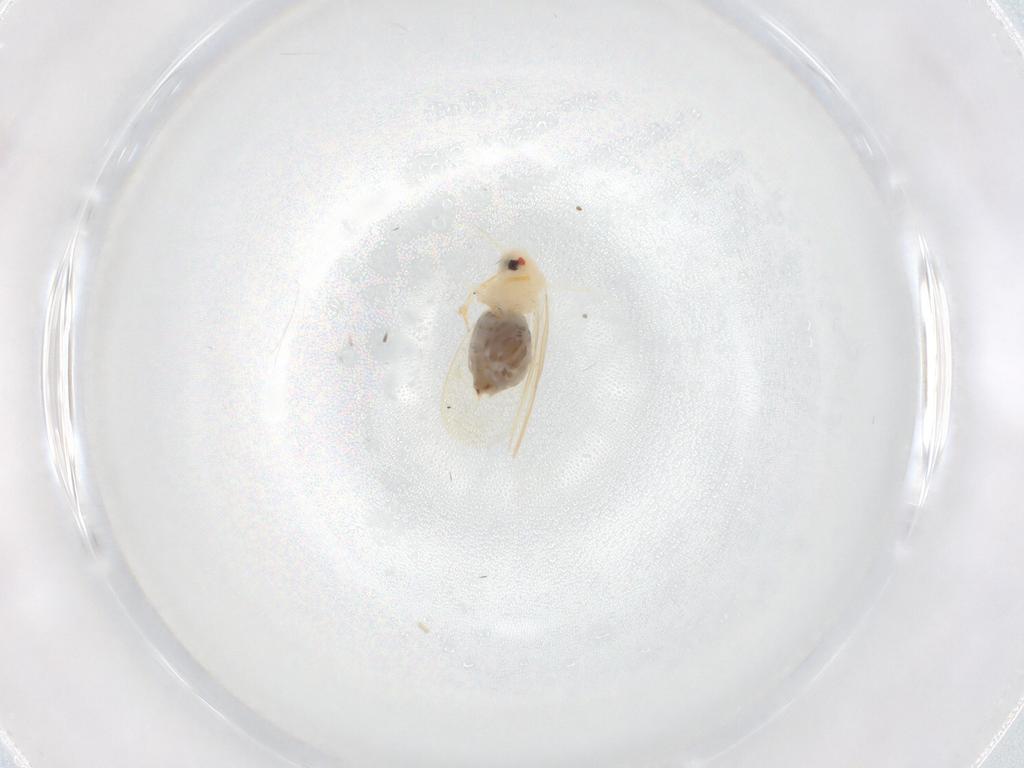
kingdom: Animalia
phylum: Arthropoda
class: Insecta
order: Hemiptera
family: Aleyrodidae
